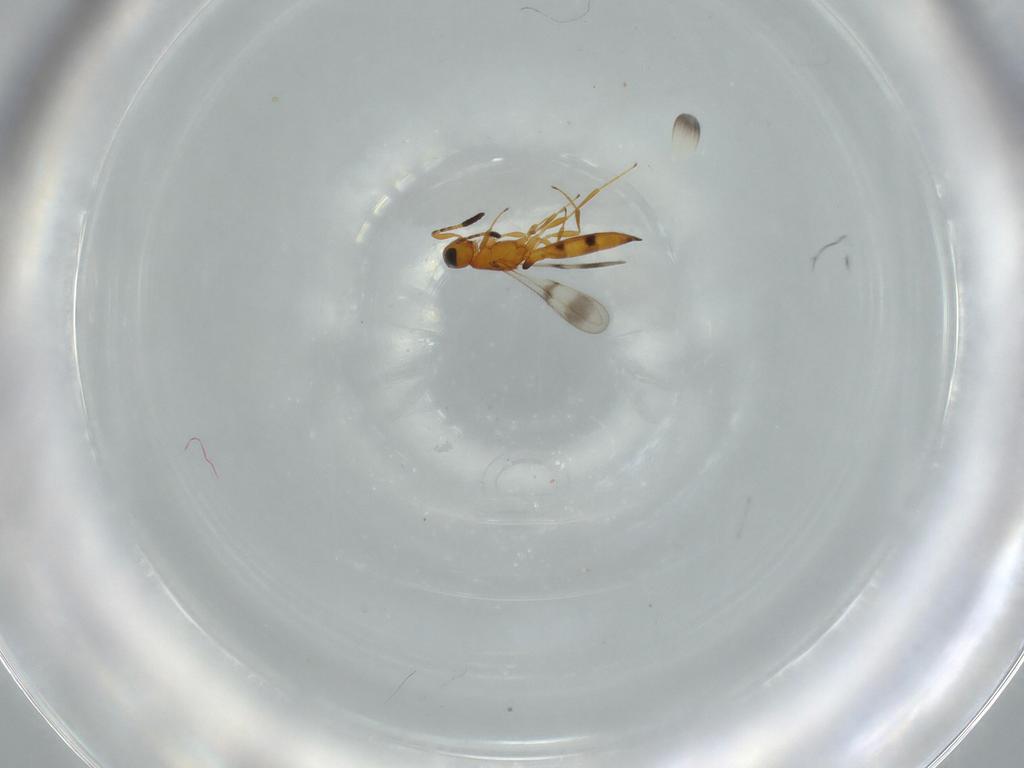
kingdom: Animalia
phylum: Arthropoda
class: Insecta
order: Hymenoptera
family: Scelionidae
